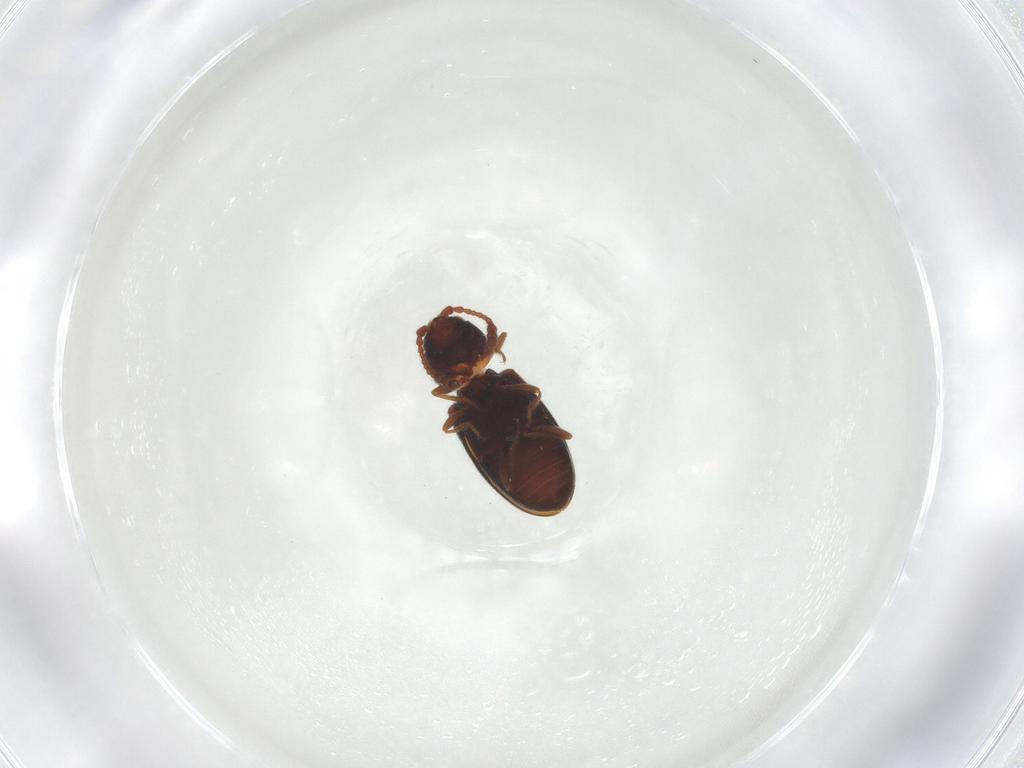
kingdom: Animalia
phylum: Arthropoda
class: Insecta
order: Coleoptera
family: Cryptophagidae
